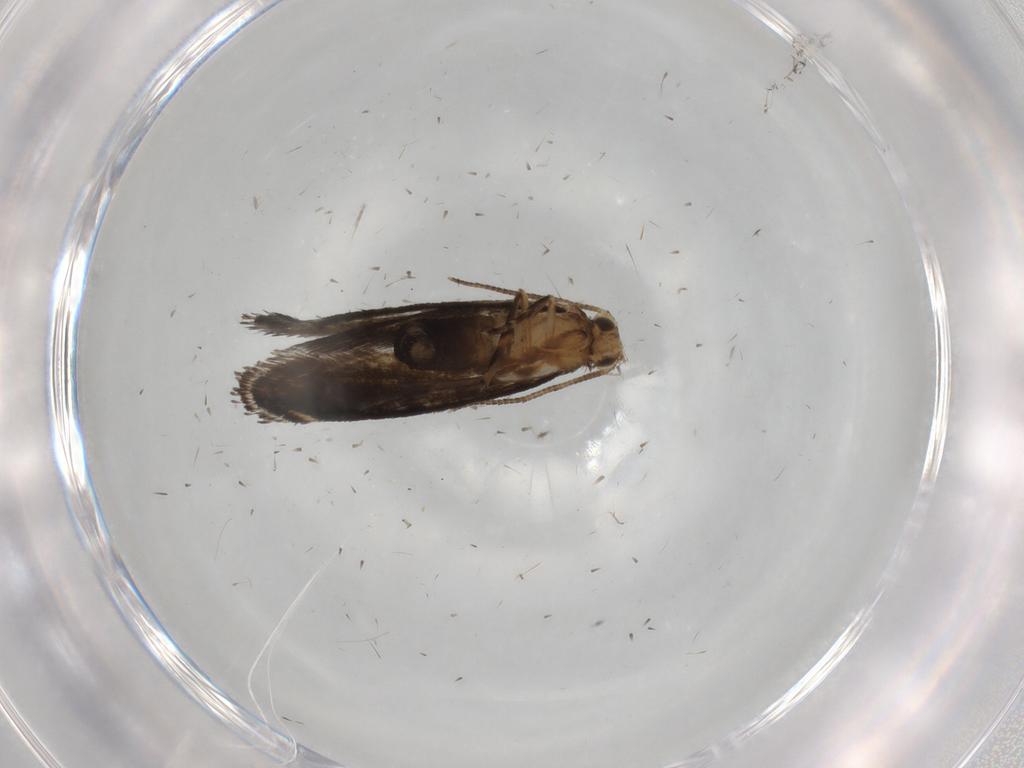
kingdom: Animalia
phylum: Arthropoda
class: Insecta
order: Lepidoptera
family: Tineidae
